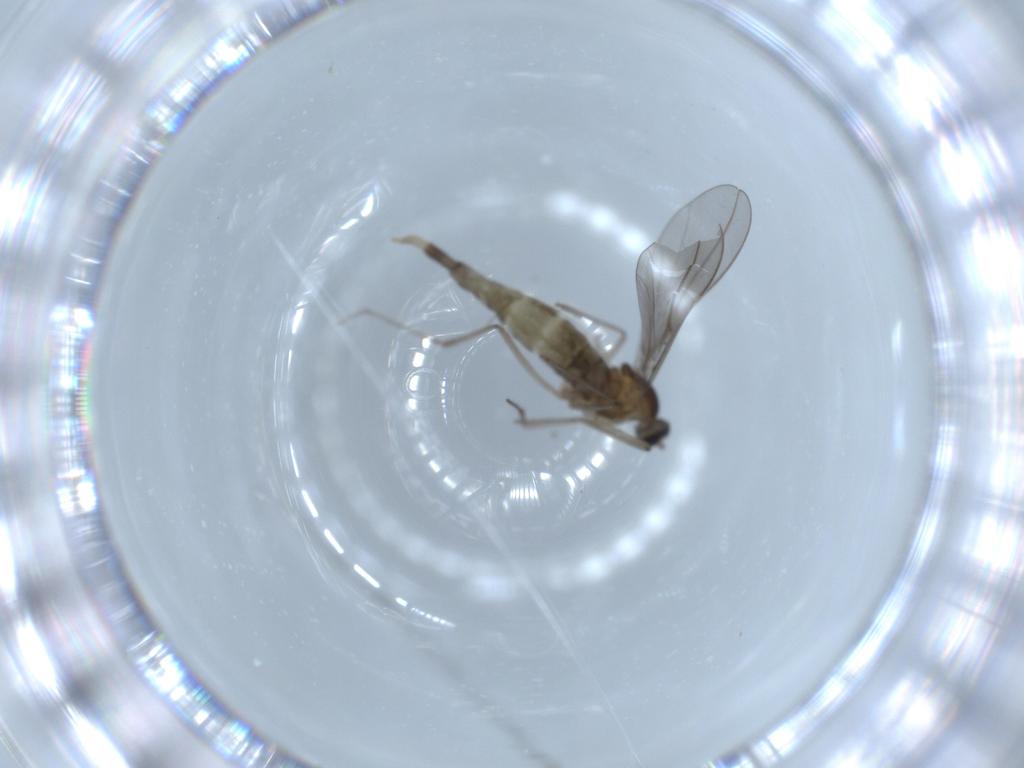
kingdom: Animalia
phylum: Arthropoda
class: Insecta
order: Diptera
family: Cecidomyiidae
